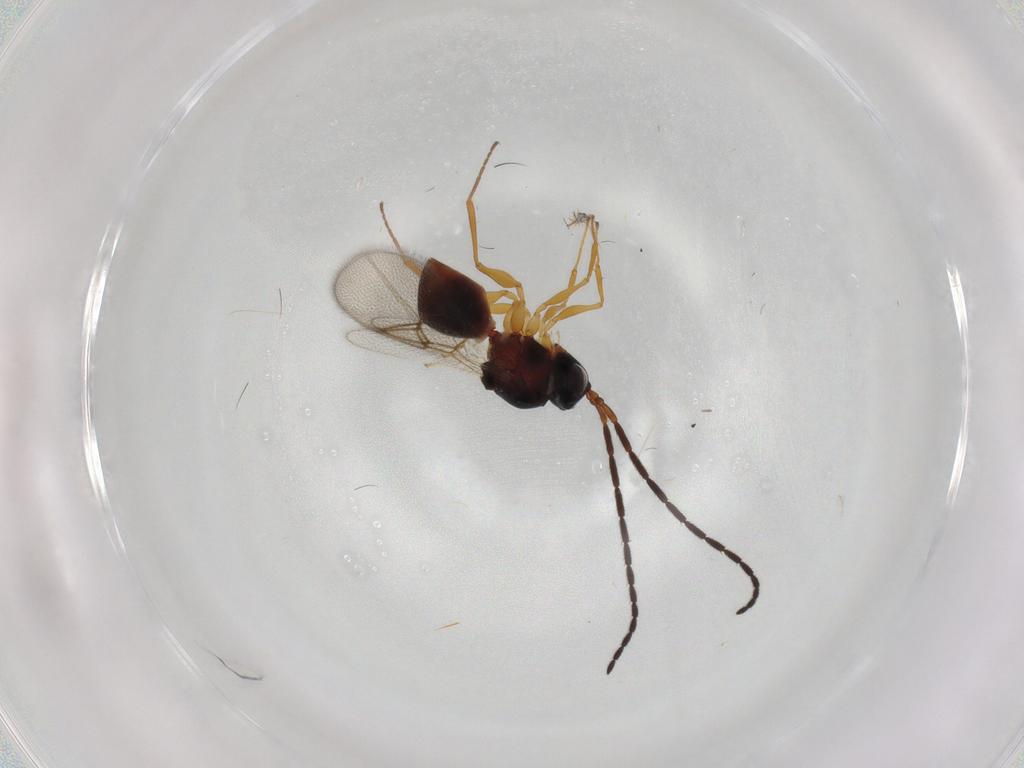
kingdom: Animalia
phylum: Arthropoda
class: Insecta
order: Hymenoptera
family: Figitidae
